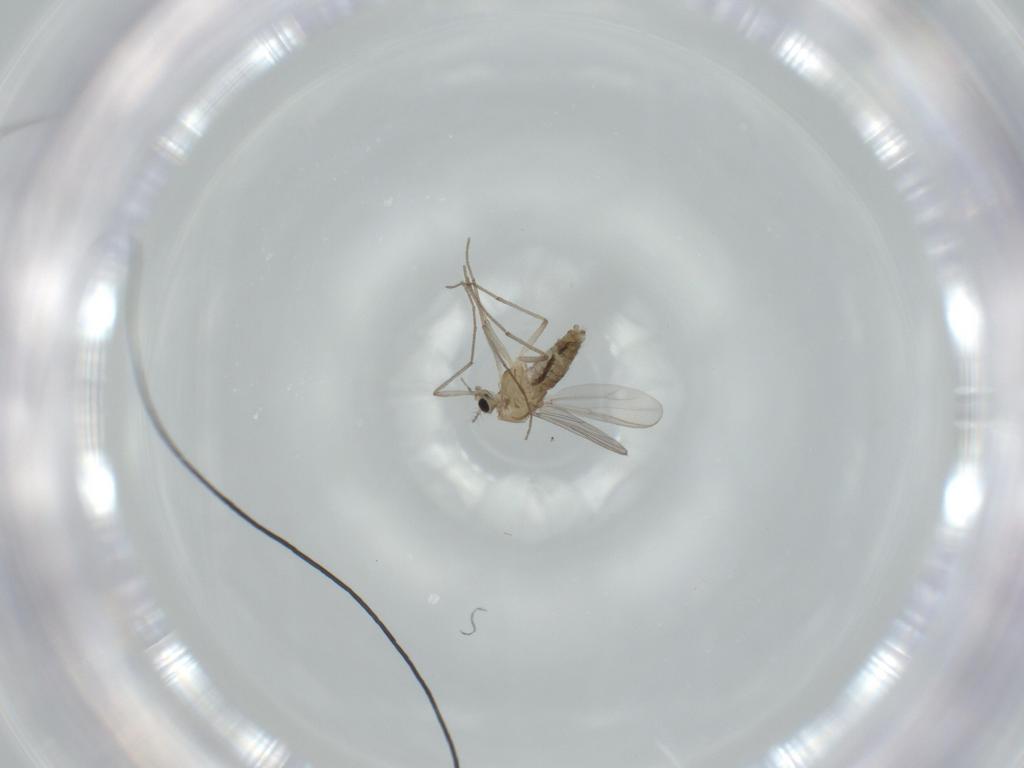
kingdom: Animalia
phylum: Arthropoda
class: Insecta
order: Diptera
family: Chironomidae
